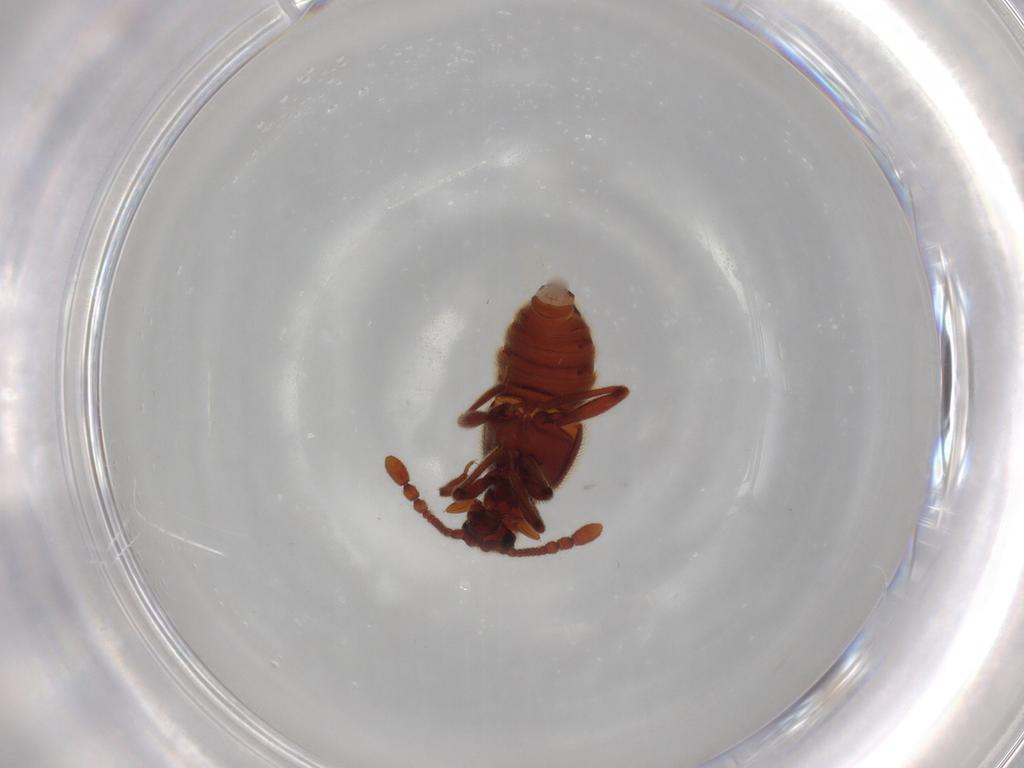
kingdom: Animalia
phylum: Arthropoda
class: Insecta
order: Coleoptera
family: Staphylinidae
